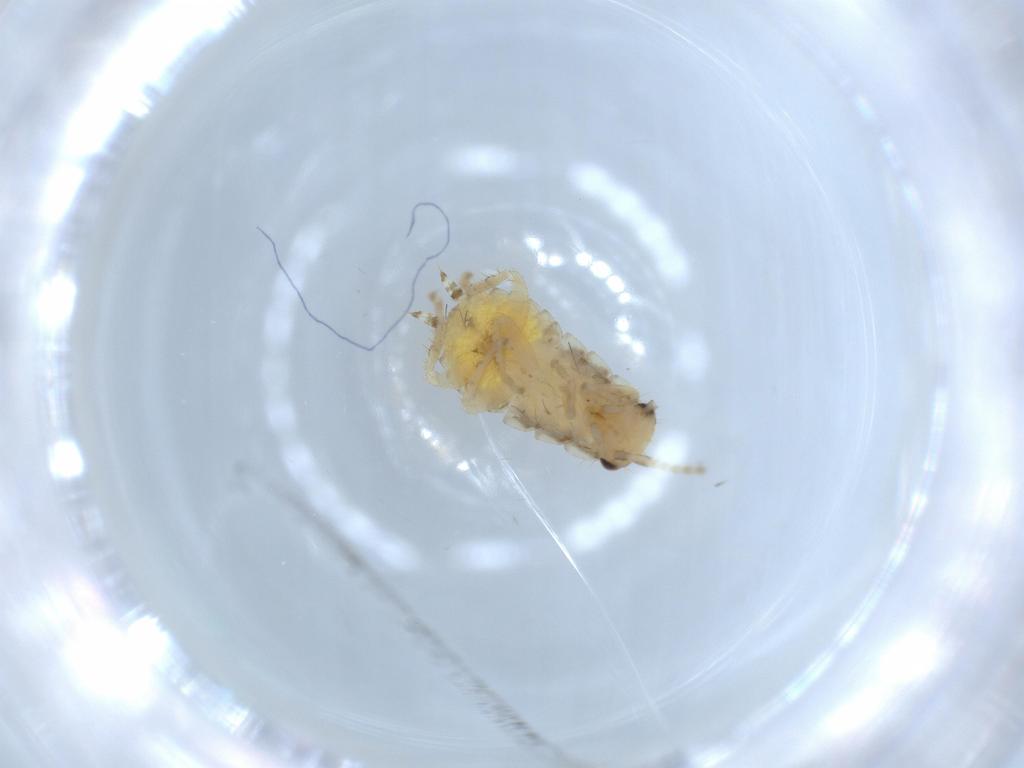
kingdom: Animalia
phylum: Arthropoda
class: Insecta
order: Blattodea
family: Ectobiidae
